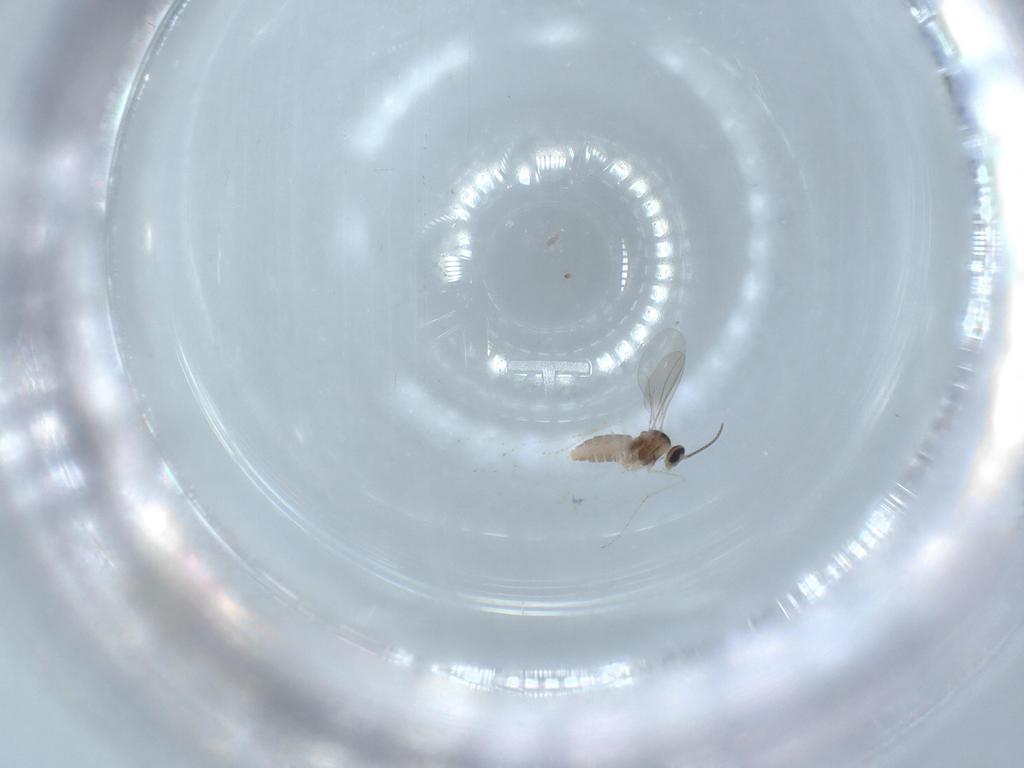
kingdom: Animalia
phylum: Arthropoda
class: Insecta
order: Diptera
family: Cecidomyiidae
